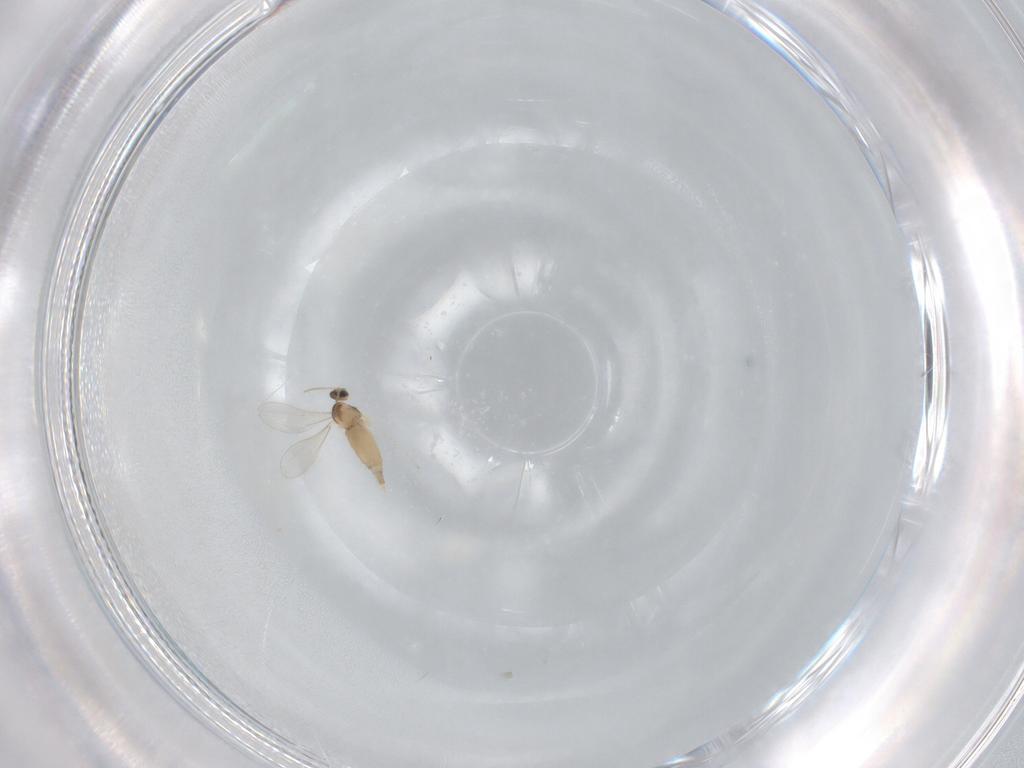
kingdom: Animalia
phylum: Arthropoda
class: Insecta
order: Diptera
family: Cecidomyiidae
